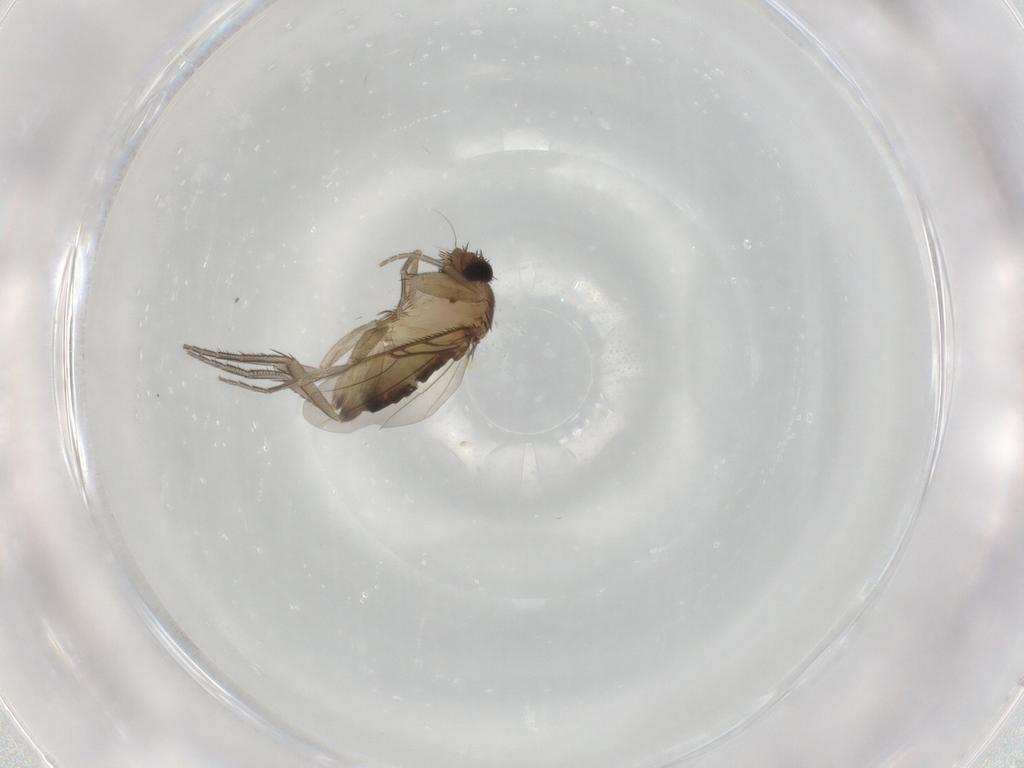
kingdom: Animalia
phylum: Arthropoda
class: Insecta
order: Diptera
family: Phoridae
